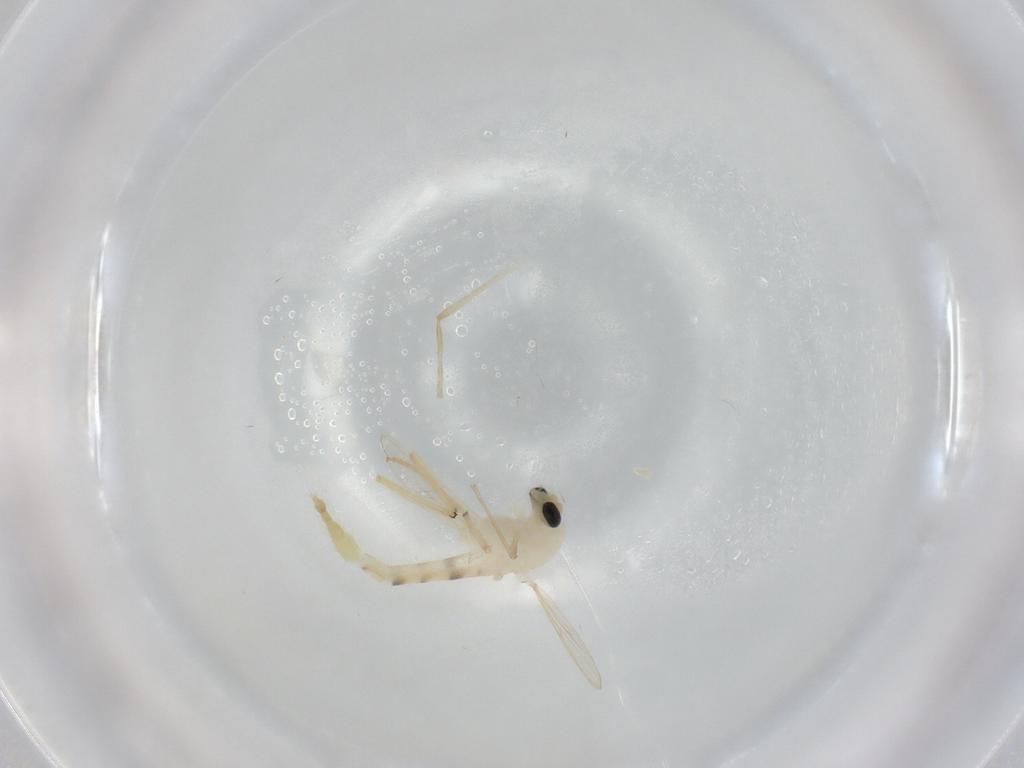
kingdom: Animalia
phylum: Arthropoda
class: Insecta
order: Diptera
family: Sciaridae
